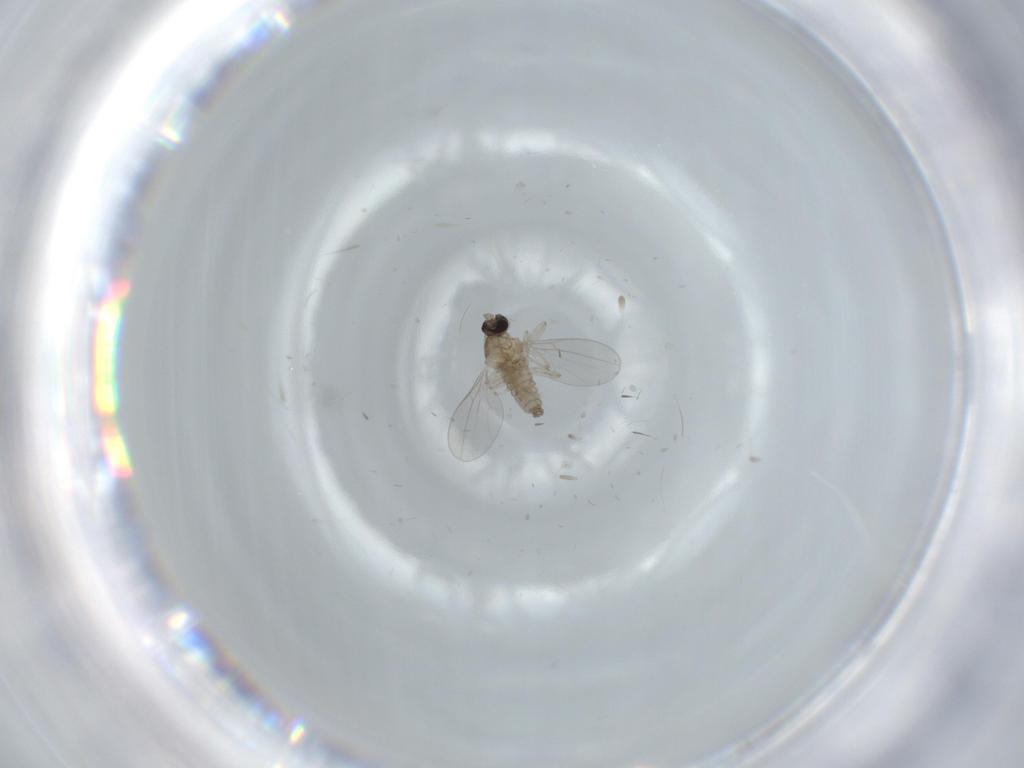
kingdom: Animalia
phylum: Arthropoda
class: Insecta
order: Diptera
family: Cecidomyiidae
